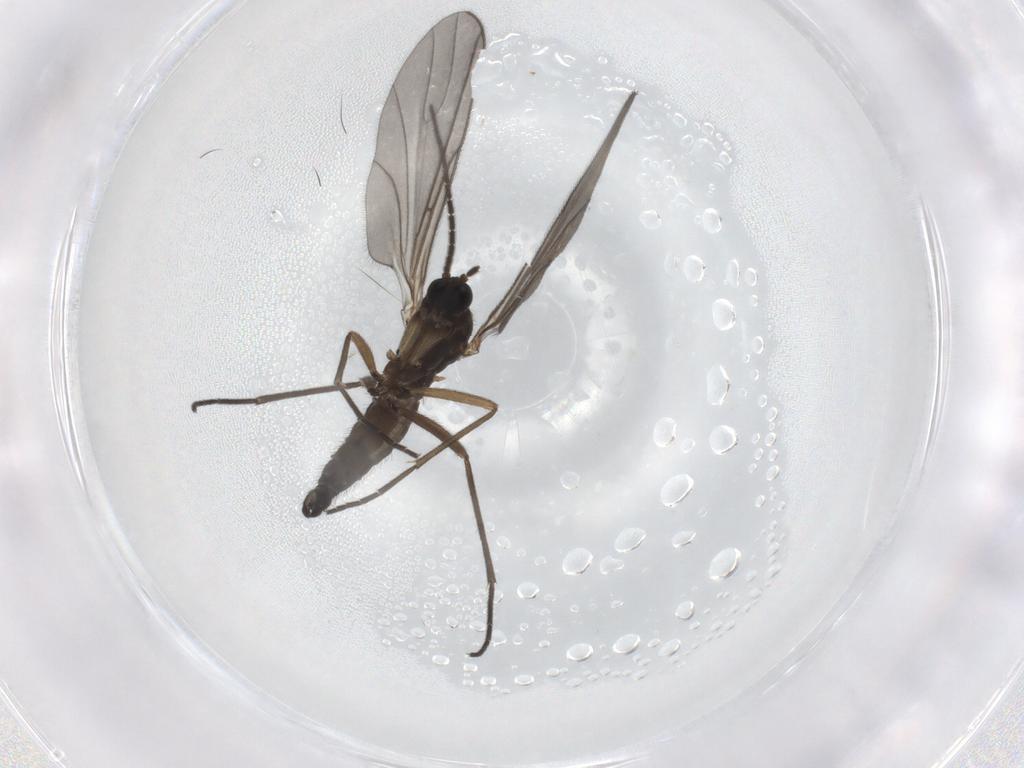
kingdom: Animalia
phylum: Arthropoda
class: Insecta
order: Diptera
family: Sciaridae
